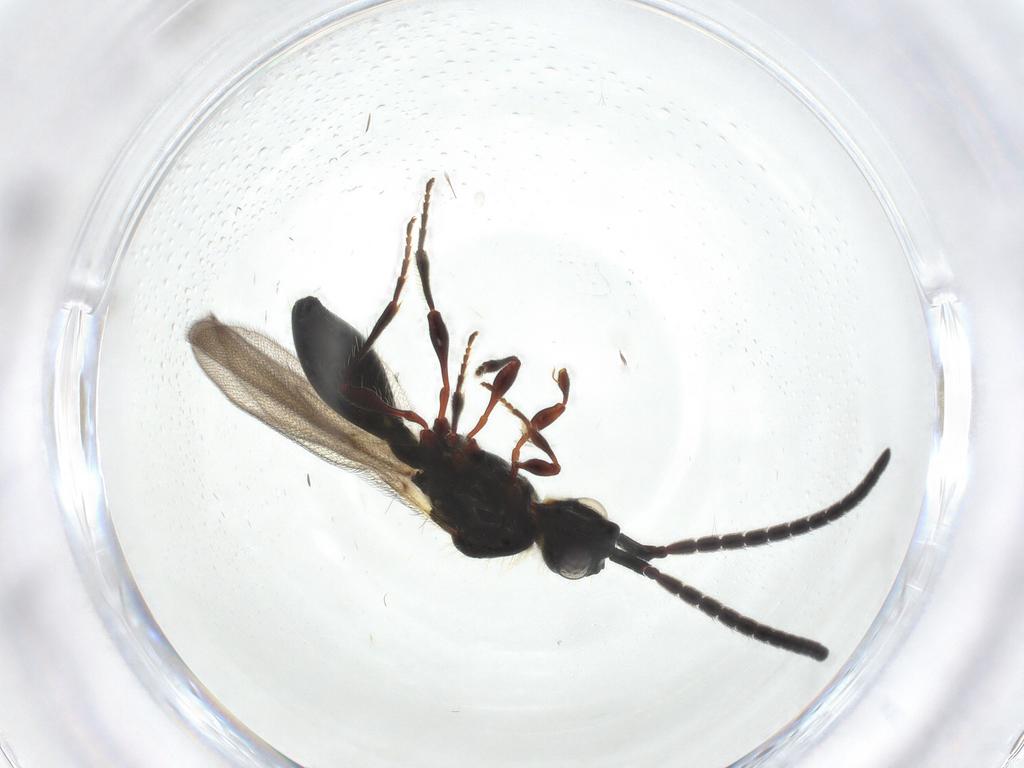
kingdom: Animalia
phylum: Arthropoda
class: Insecta
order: Hymenoptera
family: Diapriidae
